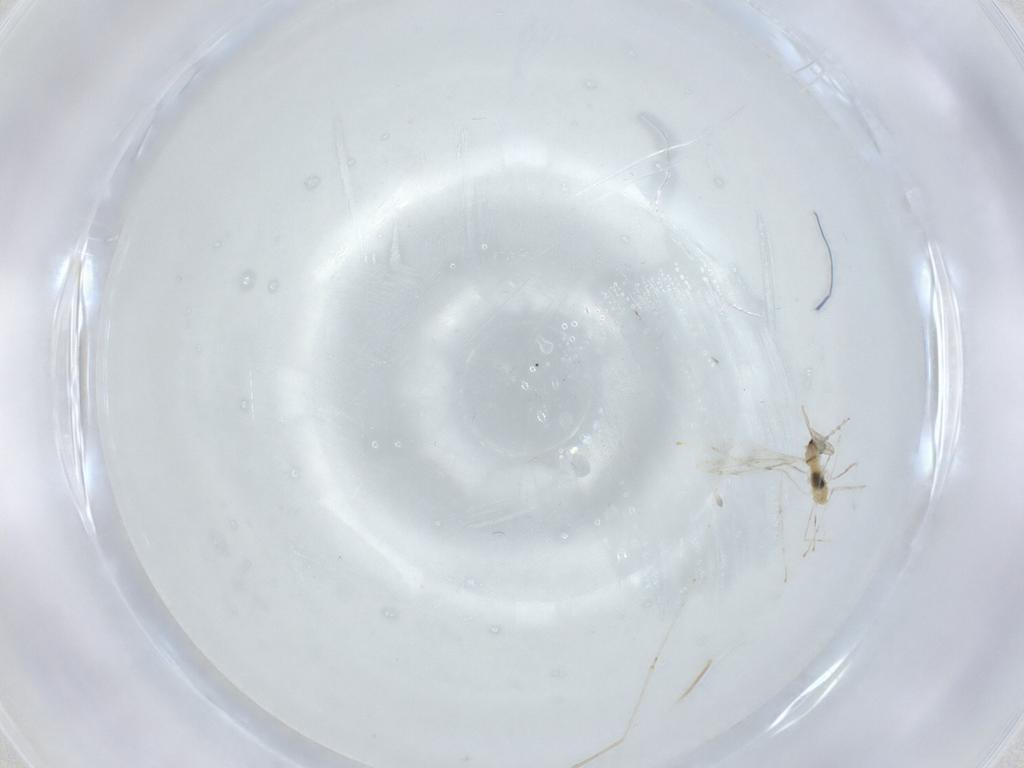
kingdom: Animalia
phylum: Arthropoda
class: Insecta
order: Diptera
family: Cecidomyiidae
